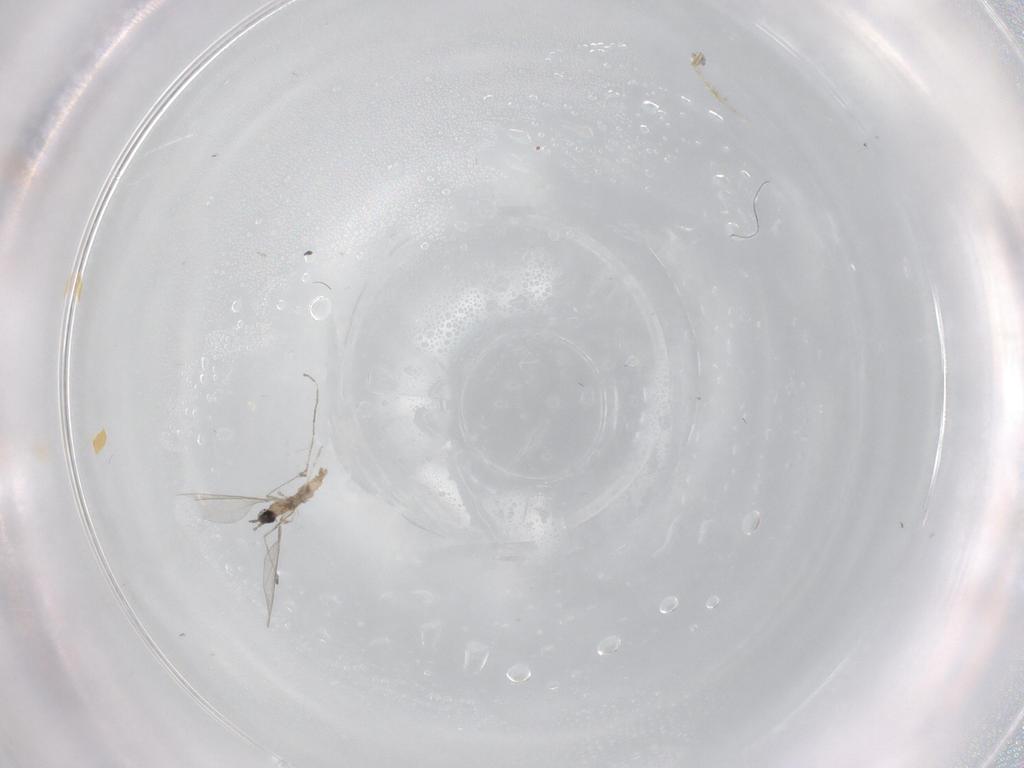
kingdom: Animalia
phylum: Arthropoda
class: Insecta
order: Diptera
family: Cecidomyiidae
